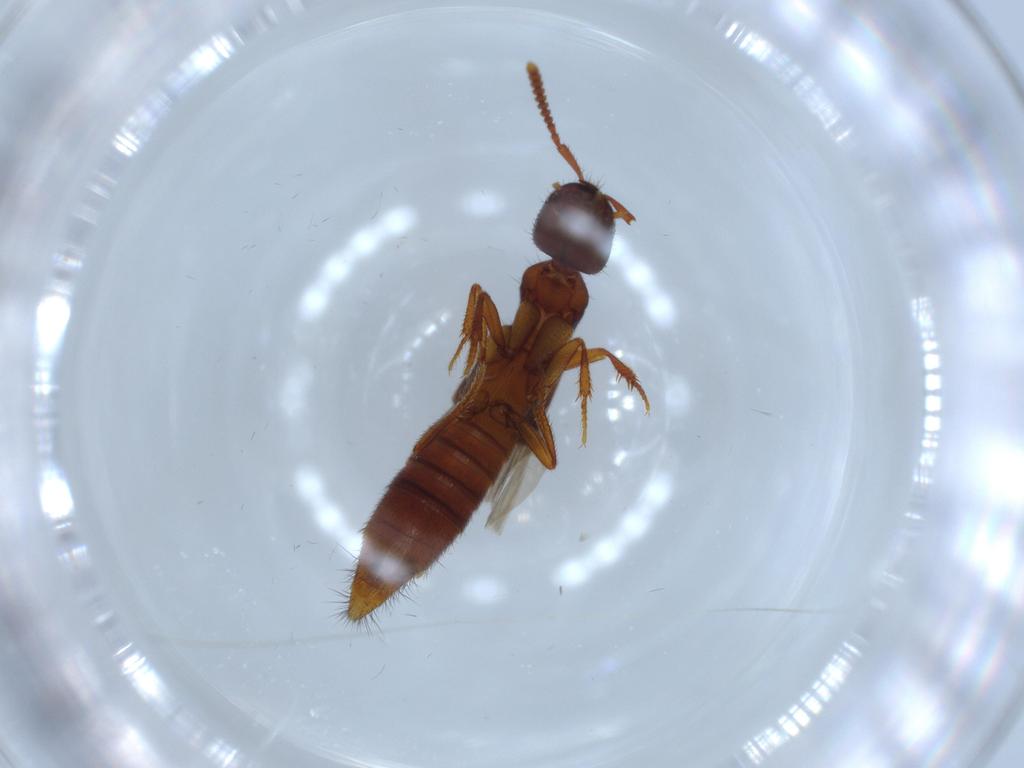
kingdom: Animalia
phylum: Arthropoda
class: Insecta
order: Coleoptera
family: Staphylinidae
